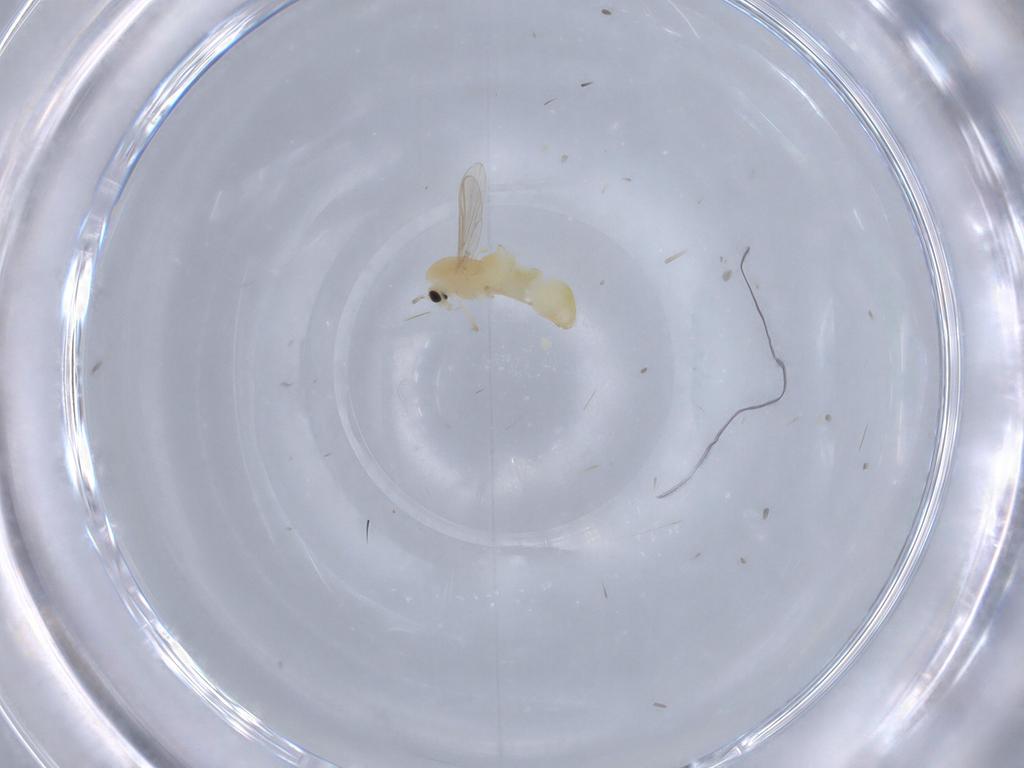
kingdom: Animalia
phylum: Arthropoda
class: Insecta
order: Diptera
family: Chironomidae
